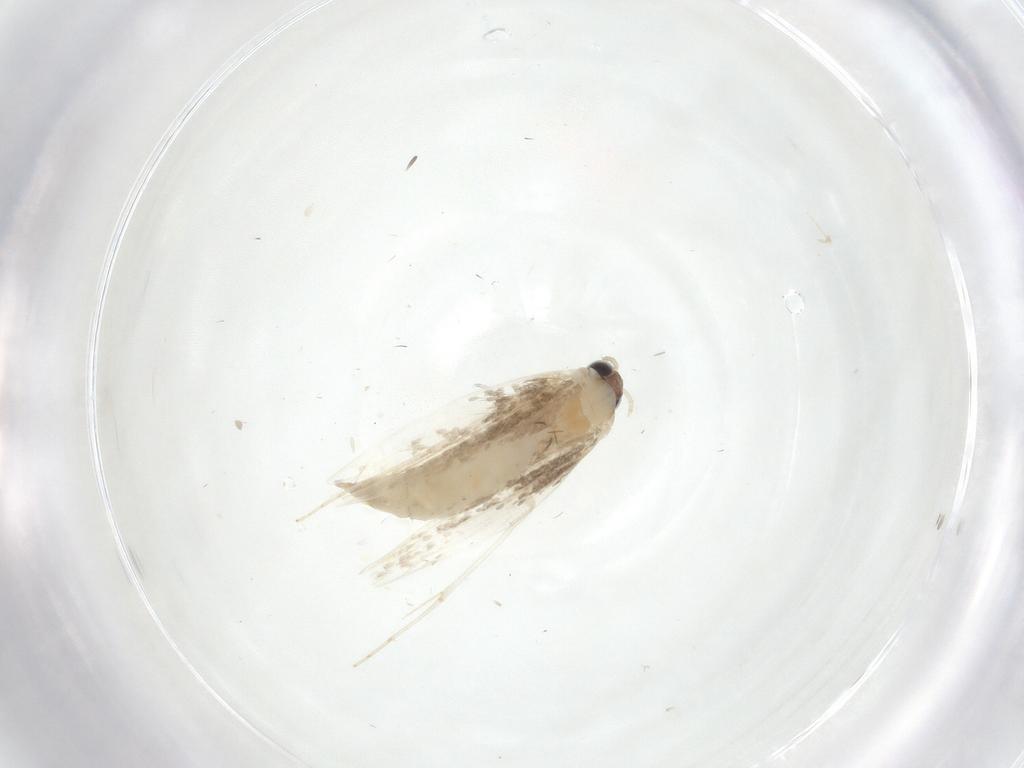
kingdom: Animalia
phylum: Arthropoda
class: Insecta
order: Lepidoptera
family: Tineidae
